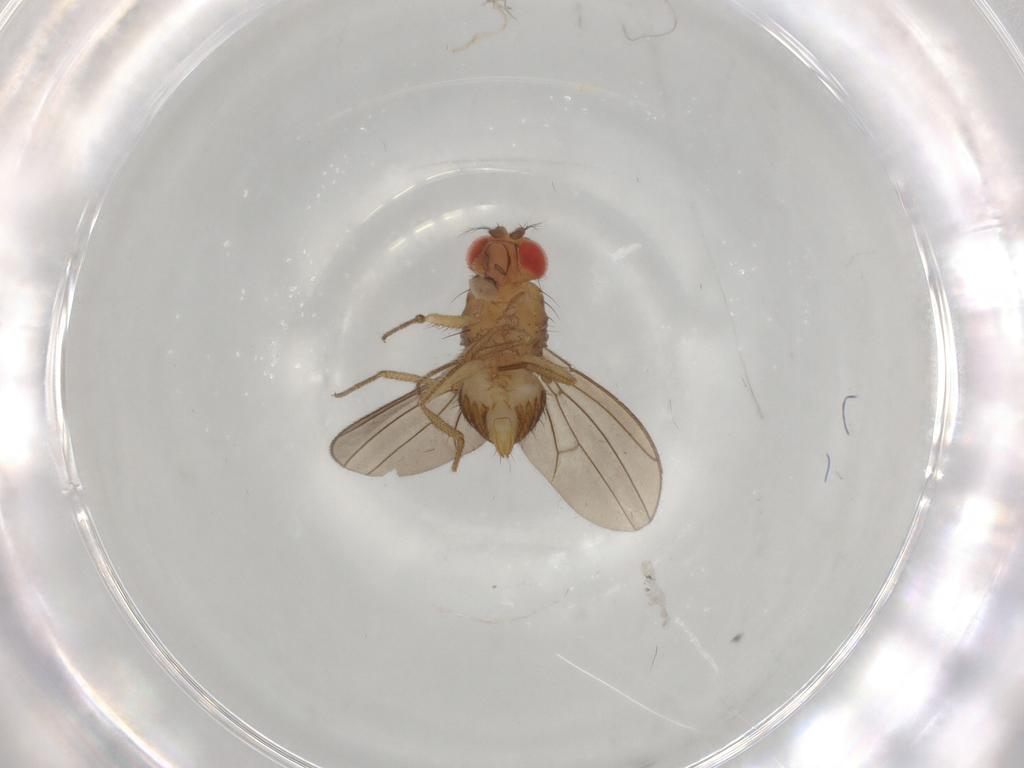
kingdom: Animalia
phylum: Arthropoda
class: Insecta
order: Diptera
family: Drosophilidae
